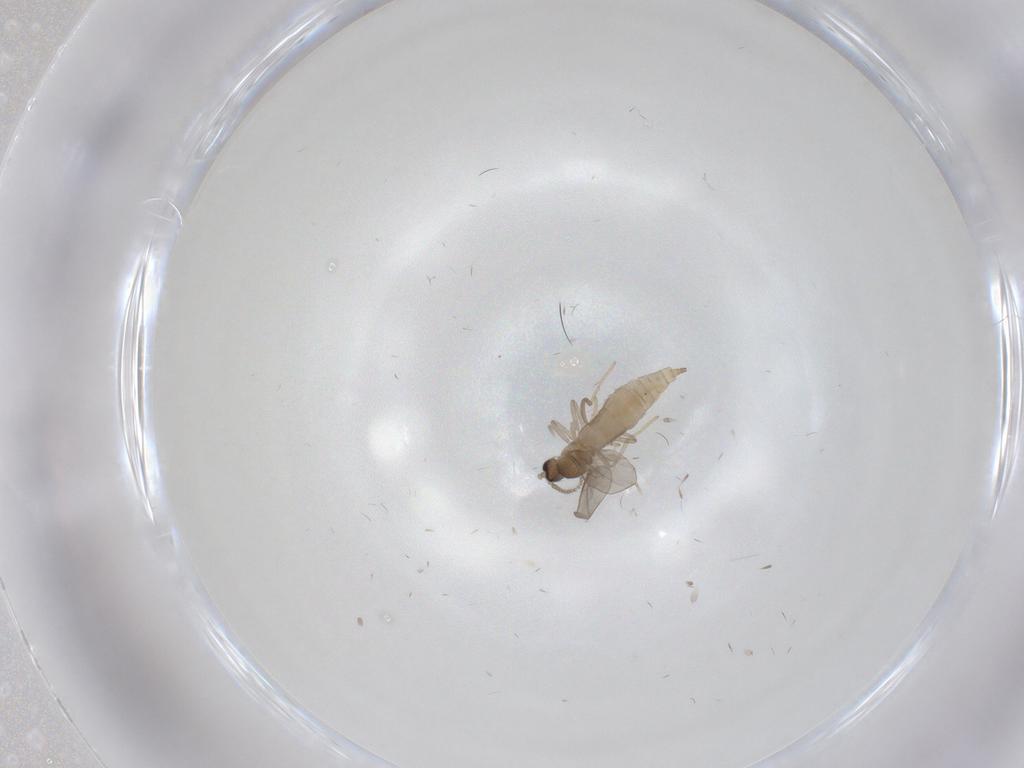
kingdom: Animalia
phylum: Arthropoda
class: Insecta
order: Diptera
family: Cecidomyiidae
